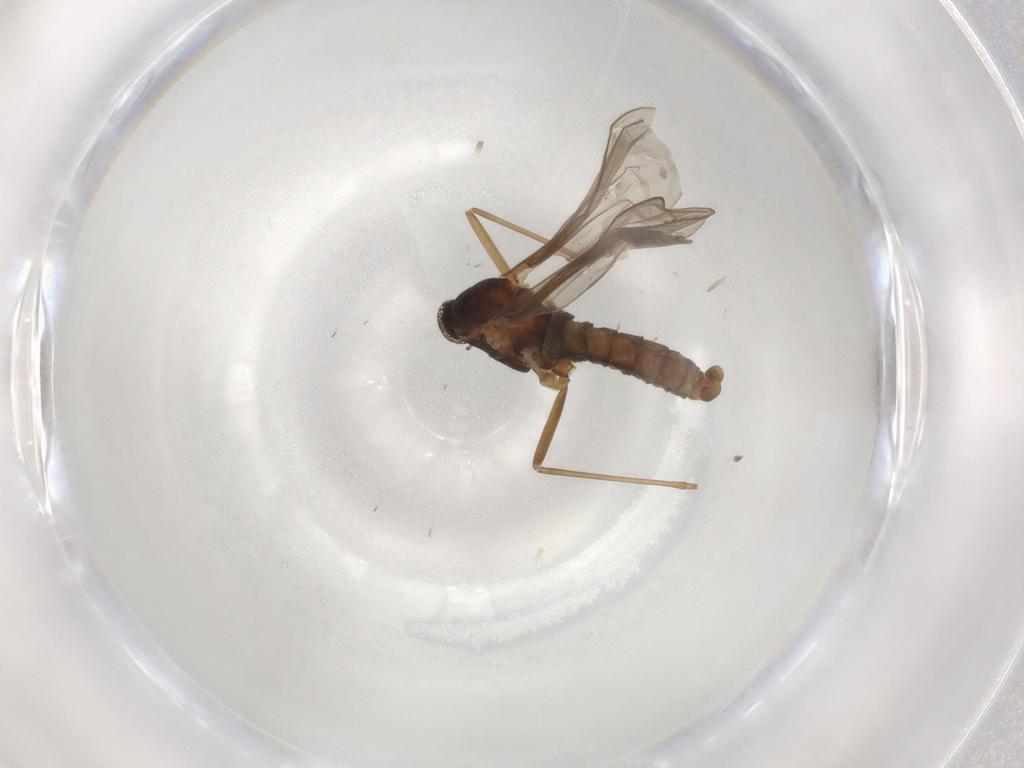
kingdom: Animalia
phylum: Arthropoda
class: Insecta
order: Diptera
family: Cecidomyiidae
